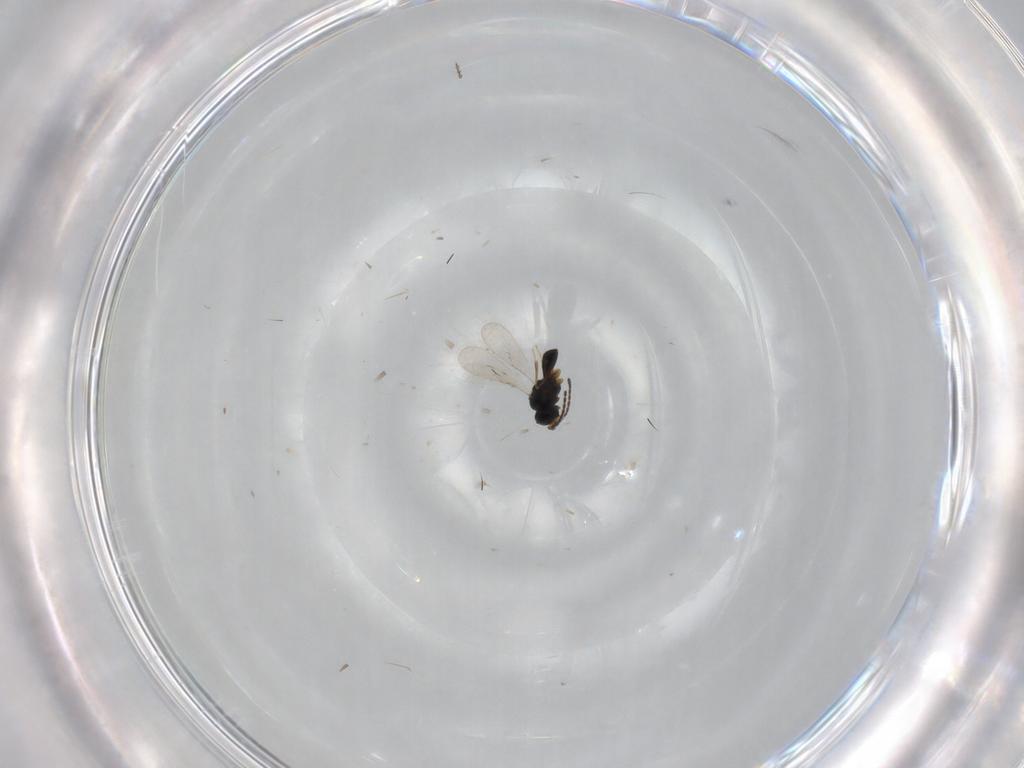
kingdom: Animalia
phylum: Arthropoda
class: Insecta
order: Hymenoptera
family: Scelionidae
